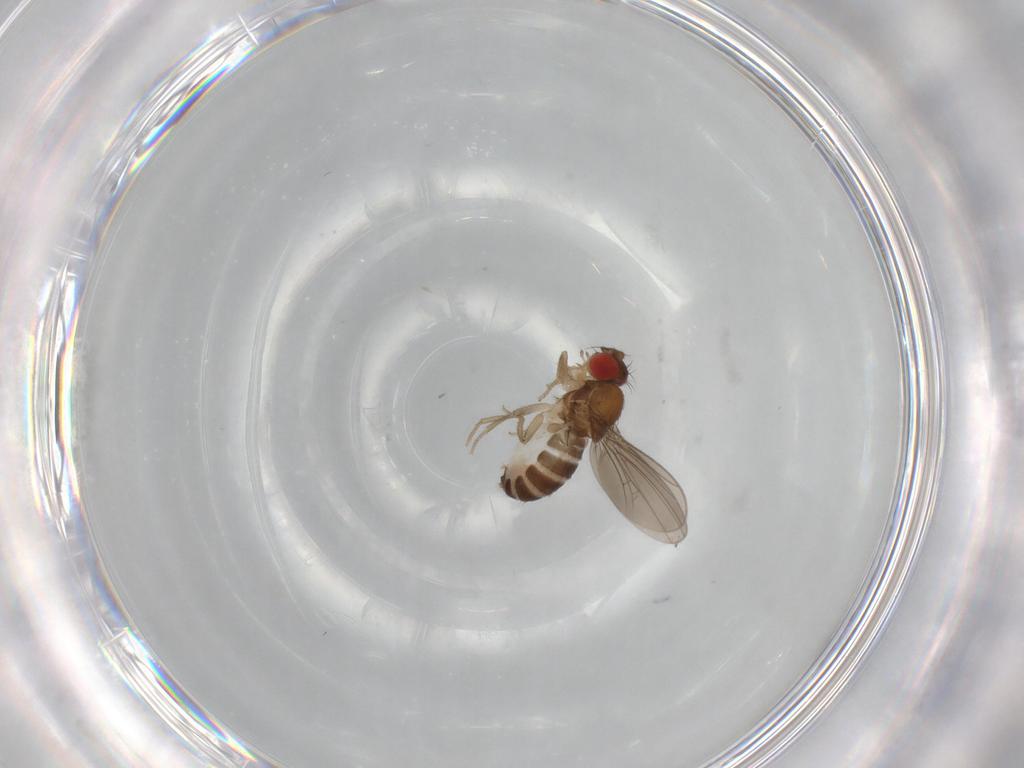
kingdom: Animalia
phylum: Arthropoda
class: Insecta
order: Diptera
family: Drosophilidae
